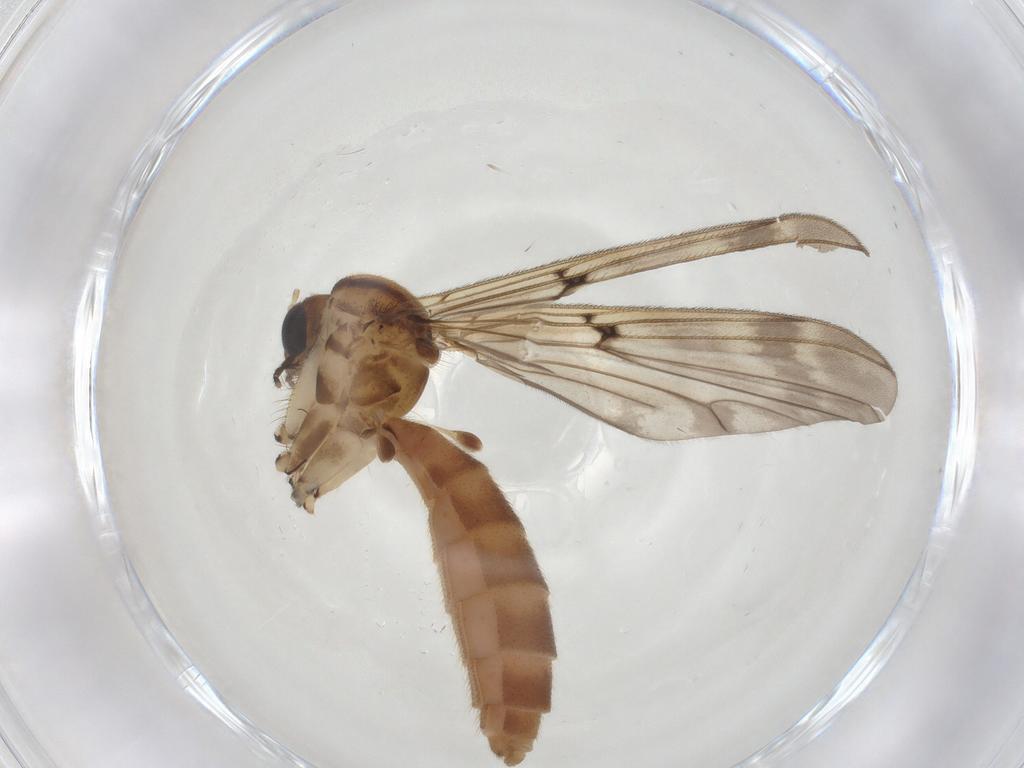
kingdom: Animalia
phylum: Arthropoda
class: Insecta
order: Diptera
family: Mycetophilidae
